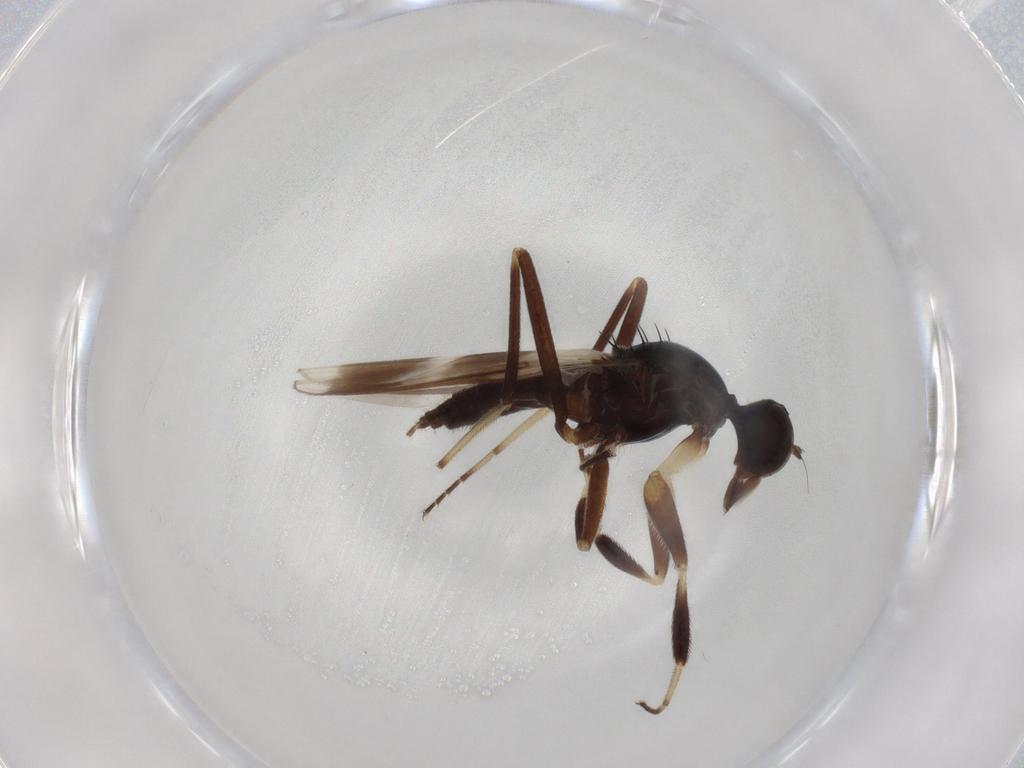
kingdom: Animalia
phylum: Arthropoda
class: Insecta
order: Diptera
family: Hybotidae
